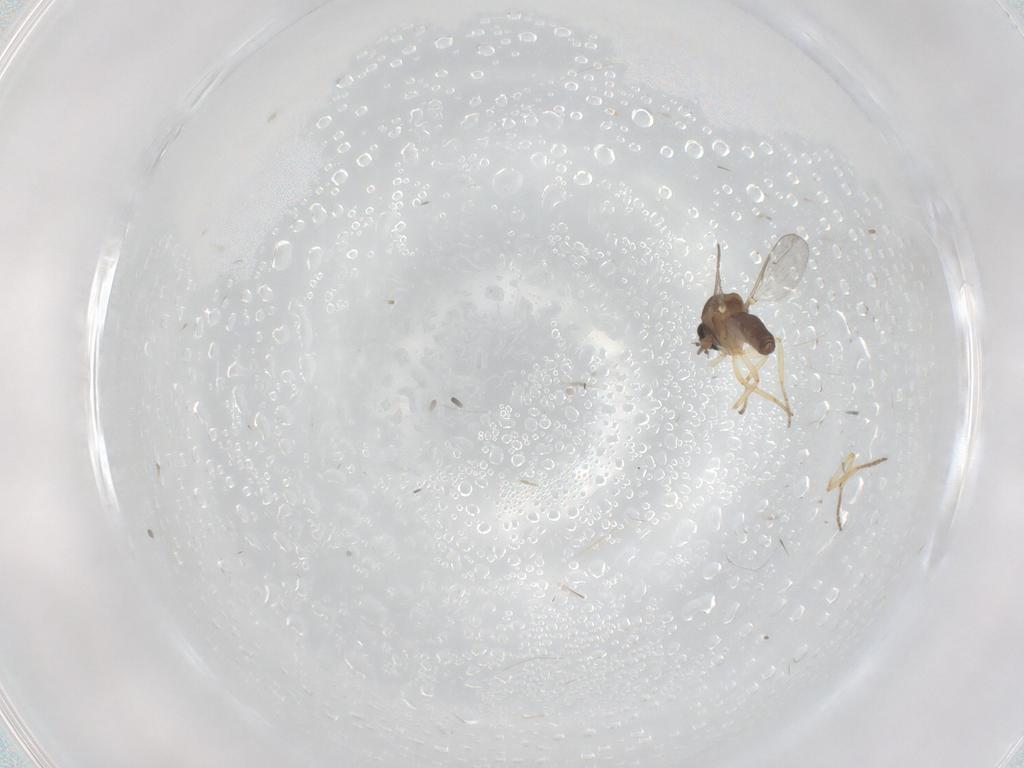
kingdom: Animalia
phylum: Arthropoda
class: Insecta
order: Diptera
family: Ceratopogonidae
